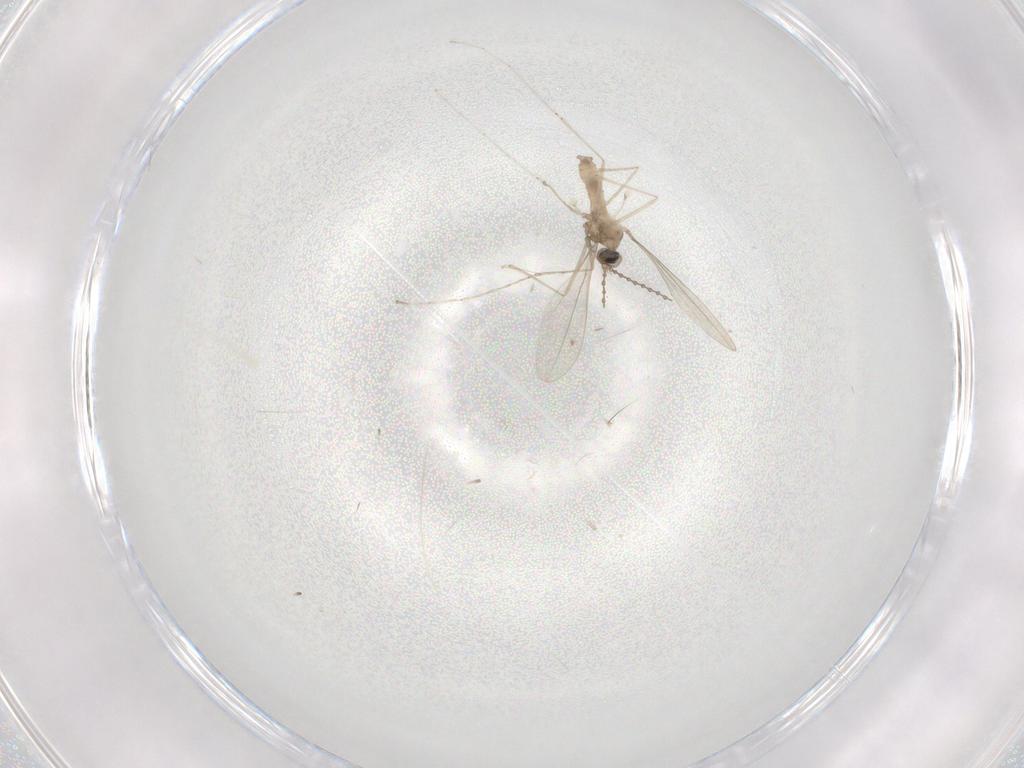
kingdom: Animalia
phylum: Arthropoda
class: Insecta
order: Diptera
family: Cecidomyiidae
